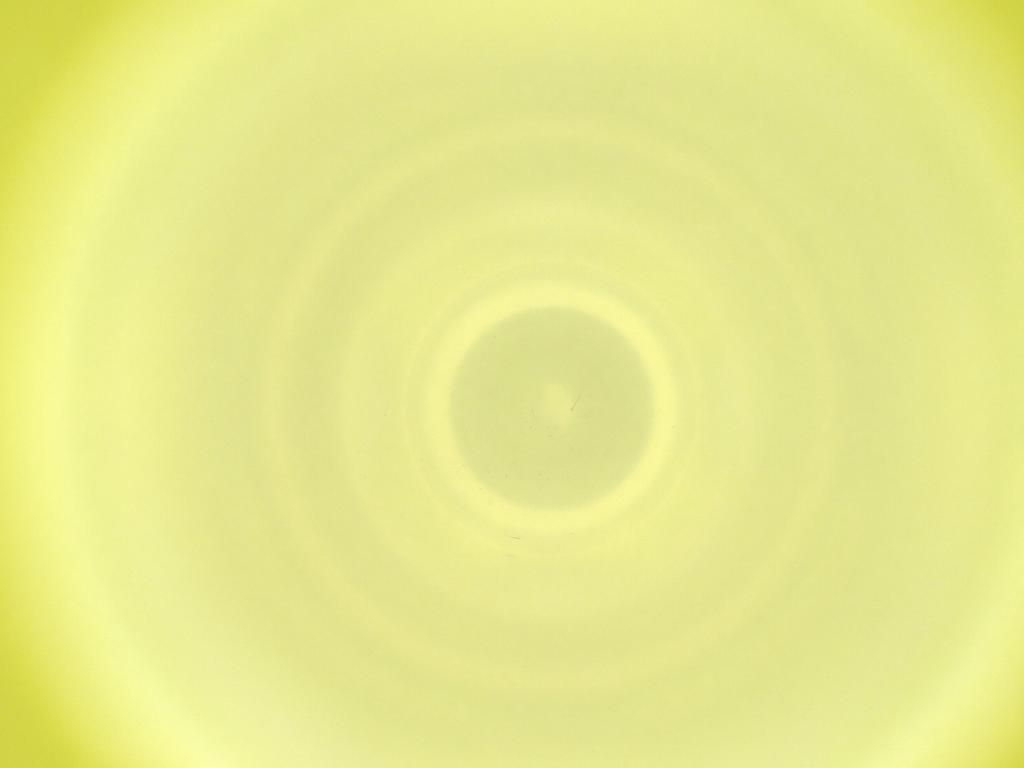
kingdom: Animalia
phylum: Arthropoda
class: Insecta
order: Diptera
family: Cecidomyiidae
